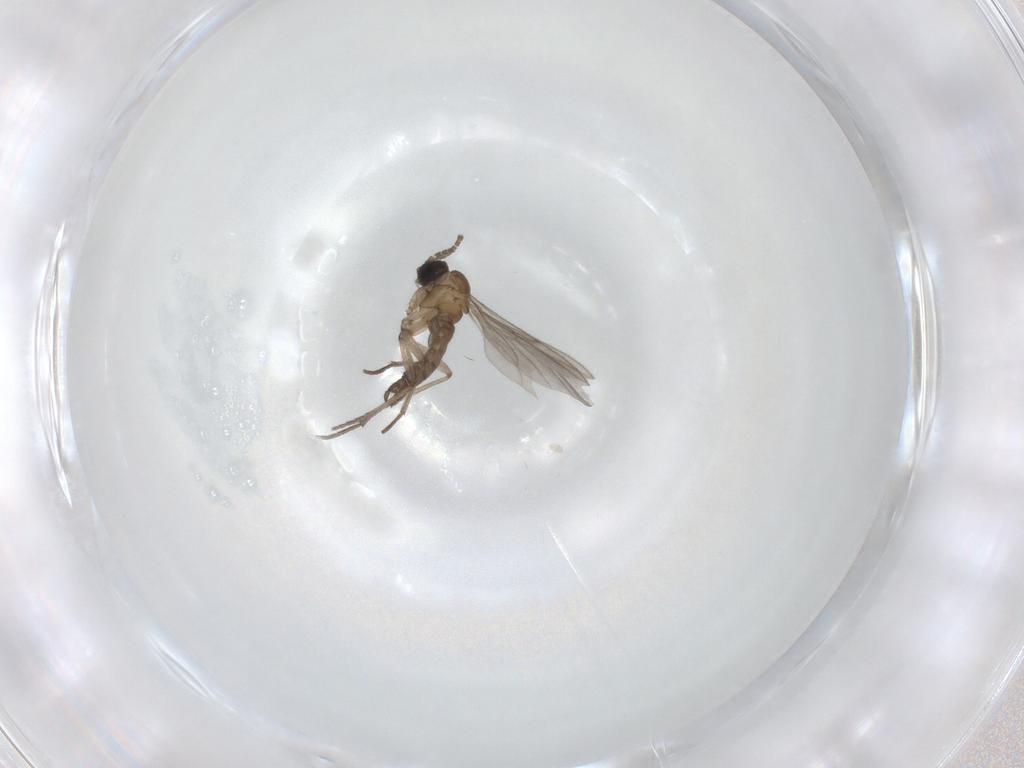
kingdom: Animalia
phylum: Arthropoda
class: Insecta
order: Diptera
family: Sciaridae
